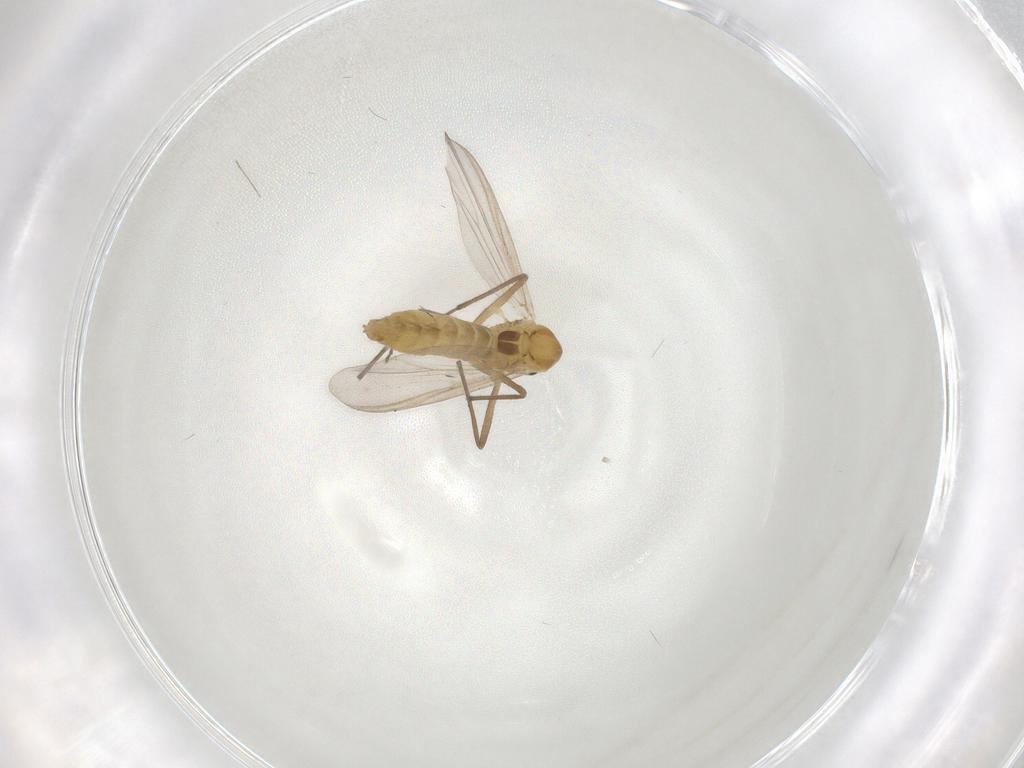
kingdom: Animalia
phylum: Arthropoda
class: Insecta
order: Diptera
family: Chironomidae
